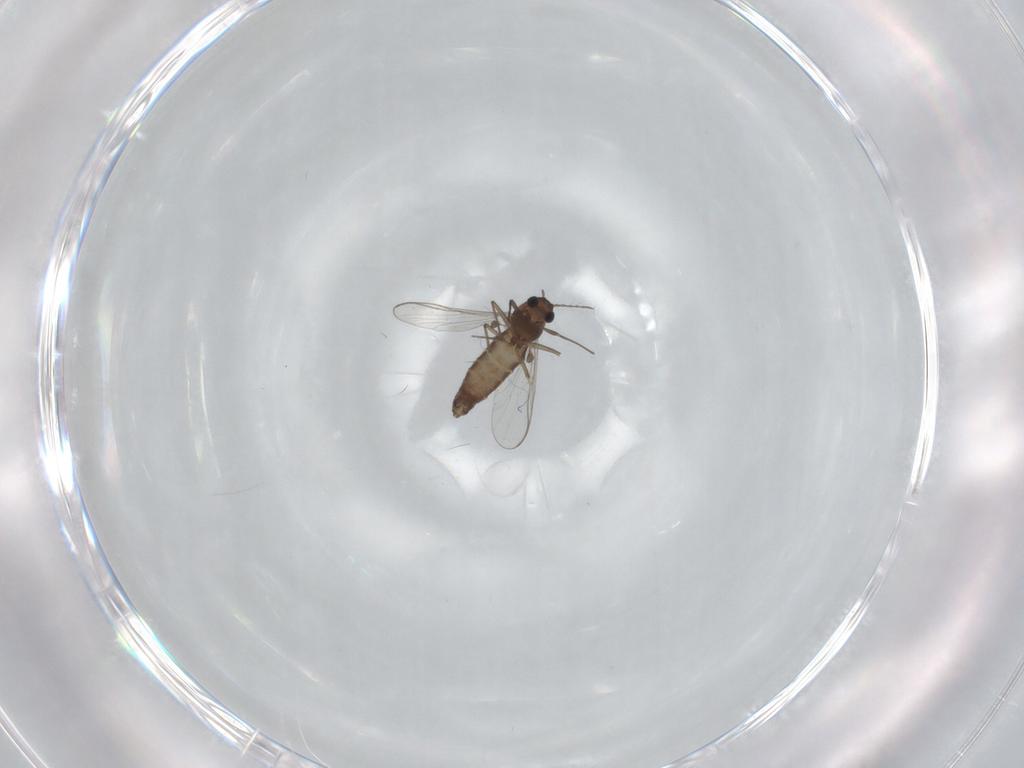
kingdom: Animalia
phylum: Arthropoda
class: Insecta
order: Diptera
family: Chironomidae
